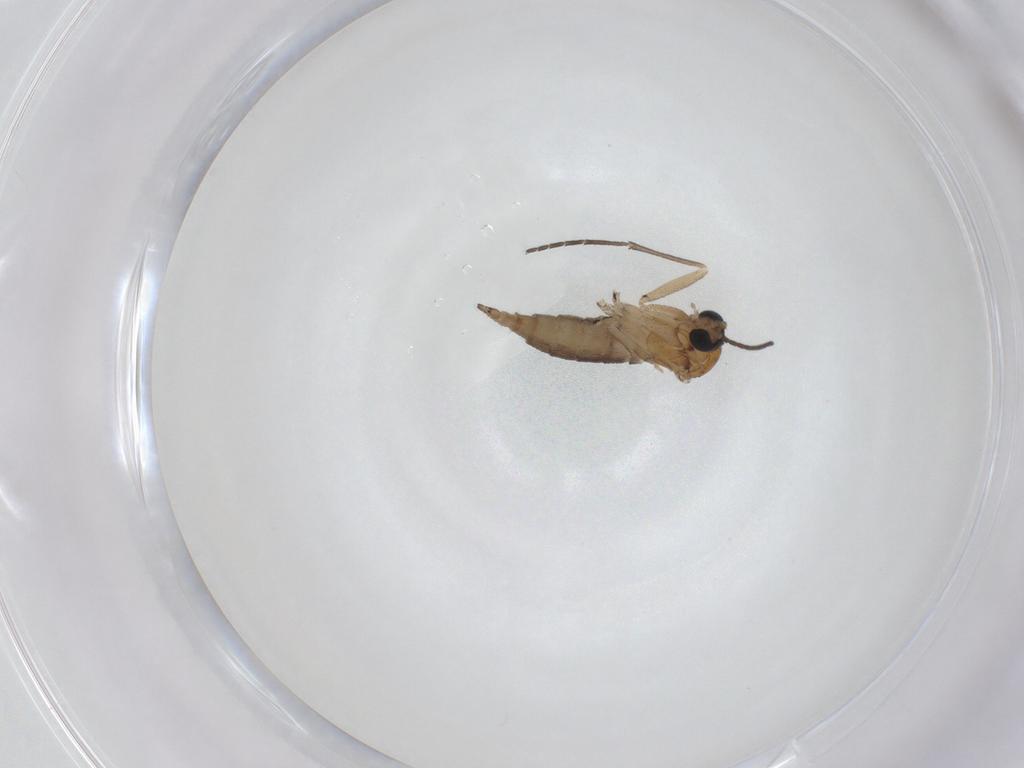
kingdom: Animalia
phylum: Arthropoda
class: Insecta
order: Diptera
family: Sciaridae
